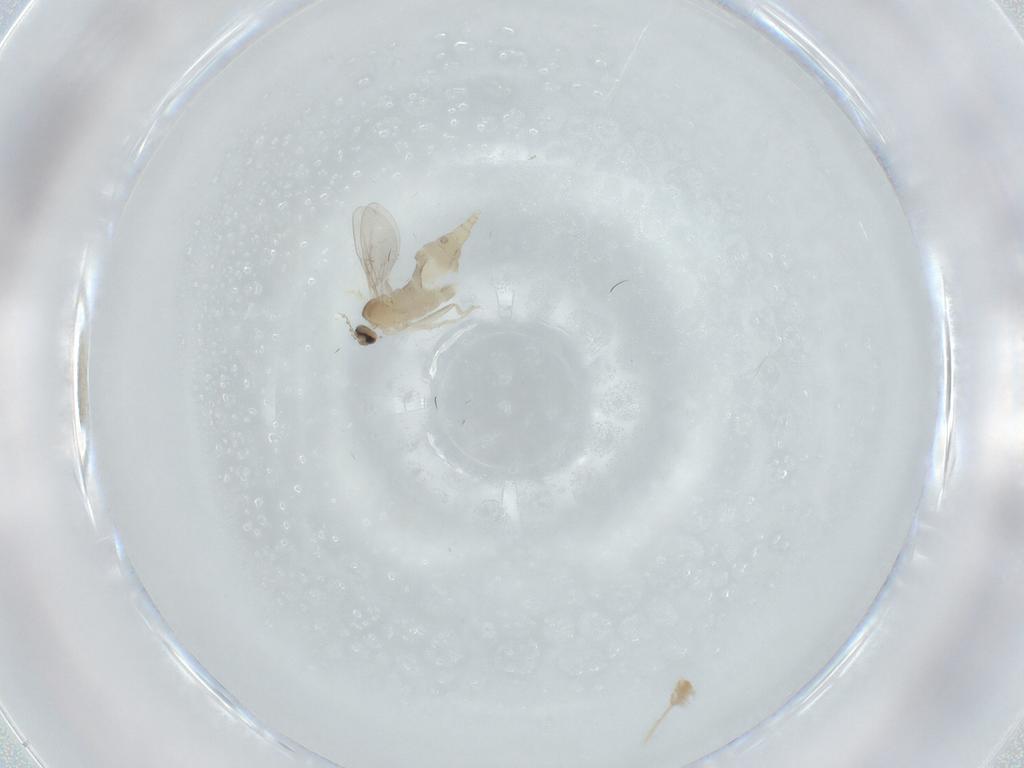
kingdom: Animalia
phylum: Arthropoda
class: Insecta
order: Diptera
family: Cecidomyiidae
